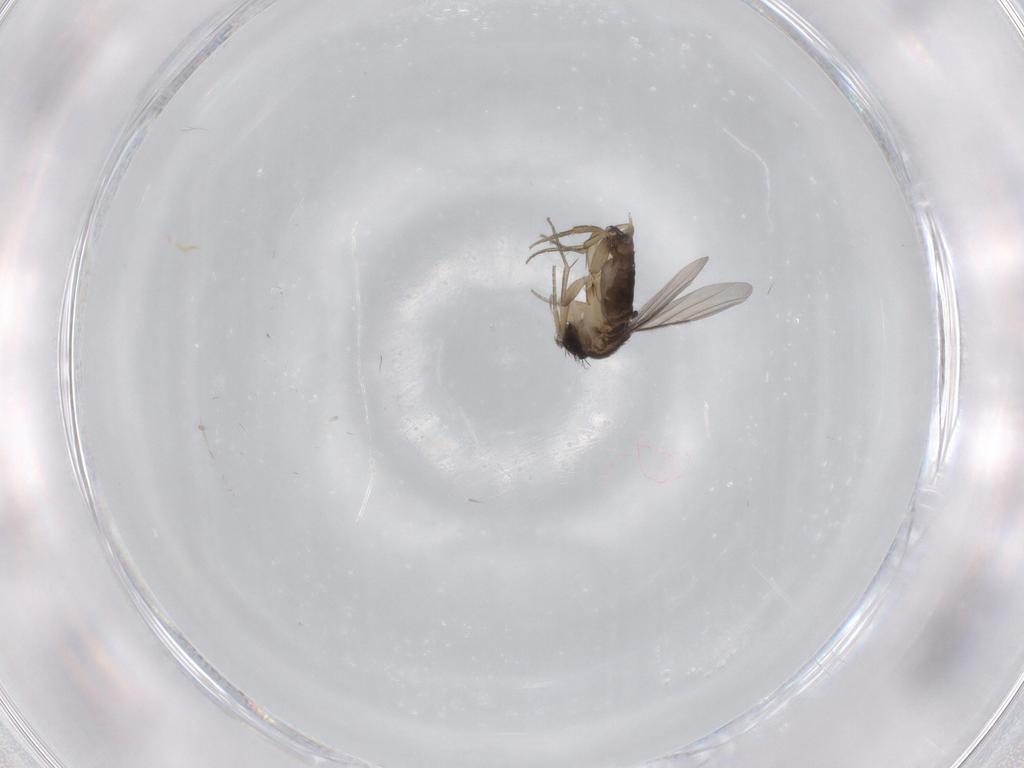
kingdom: Animalia
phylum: Arthropoda
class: Insecta
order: Diptera
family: Phoridae
